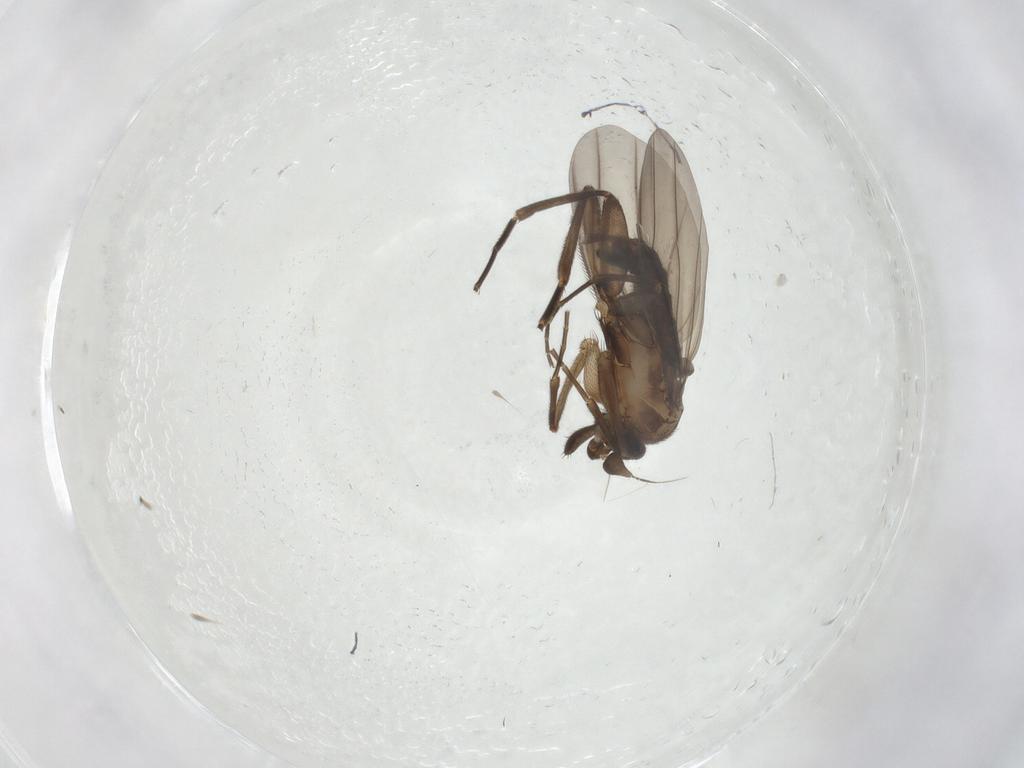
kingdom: Animalia
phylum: Arthropoda
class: Insecta
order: Diptera
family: Phoridae
